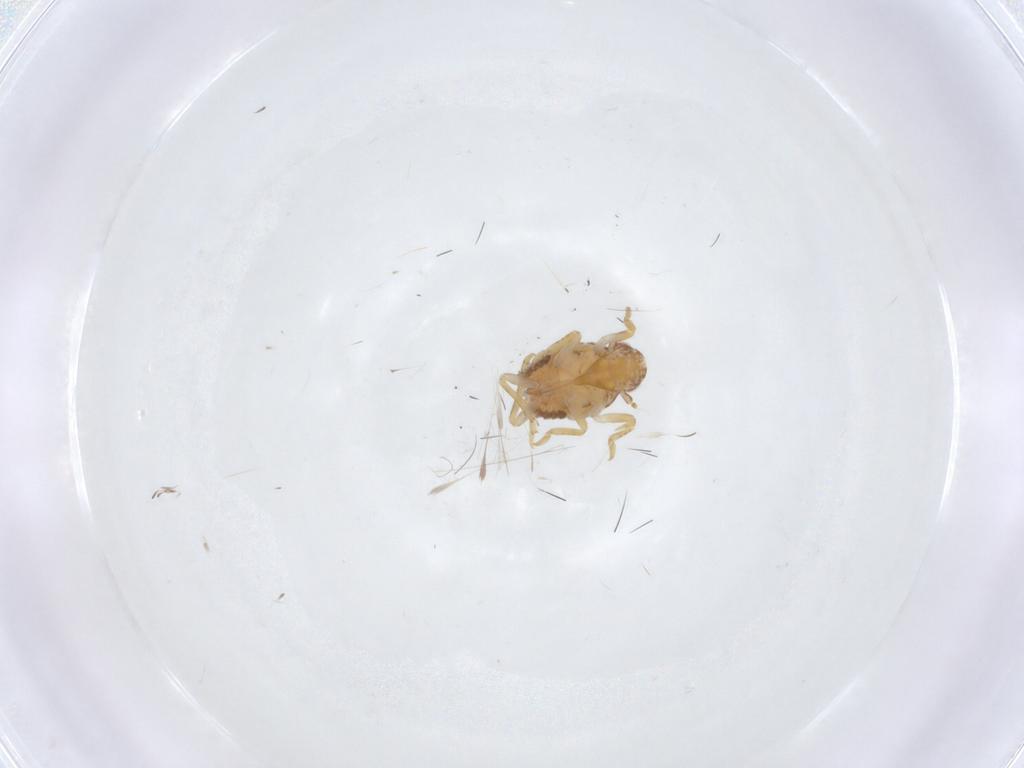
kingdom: Animalia
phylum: Arthropoda
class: Insecta
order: Hemiptera
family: Flatidae
